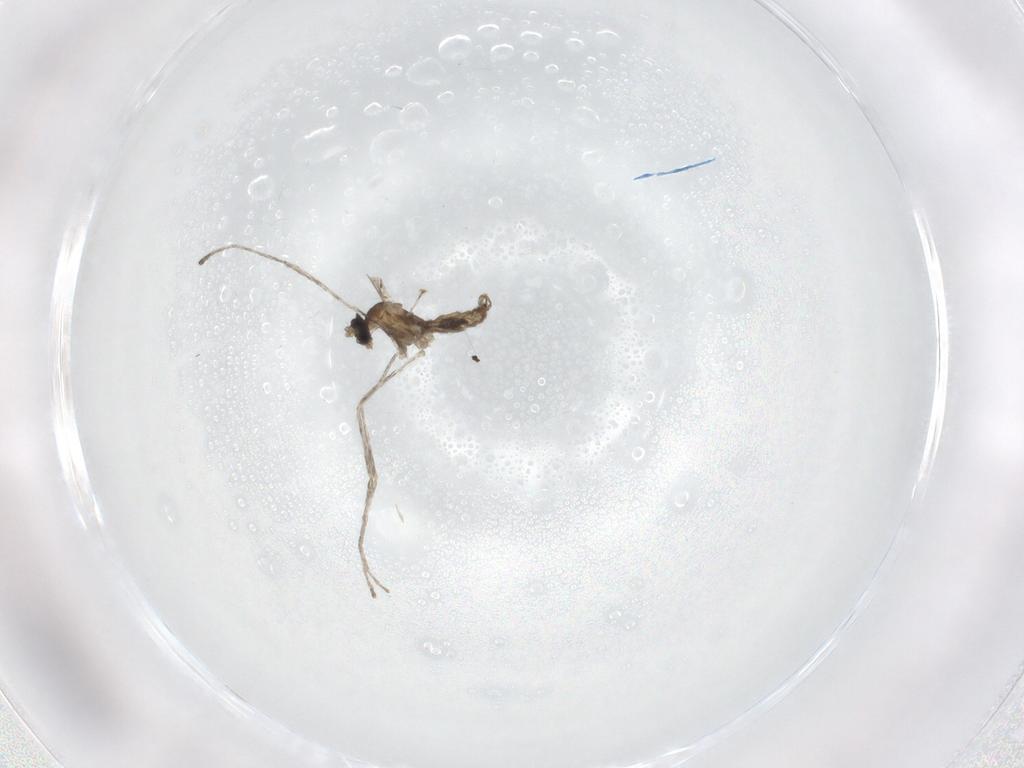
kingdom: Animalia
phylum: Arthropoda
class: Insecta
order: Diptera
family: Cecidomyiidae
